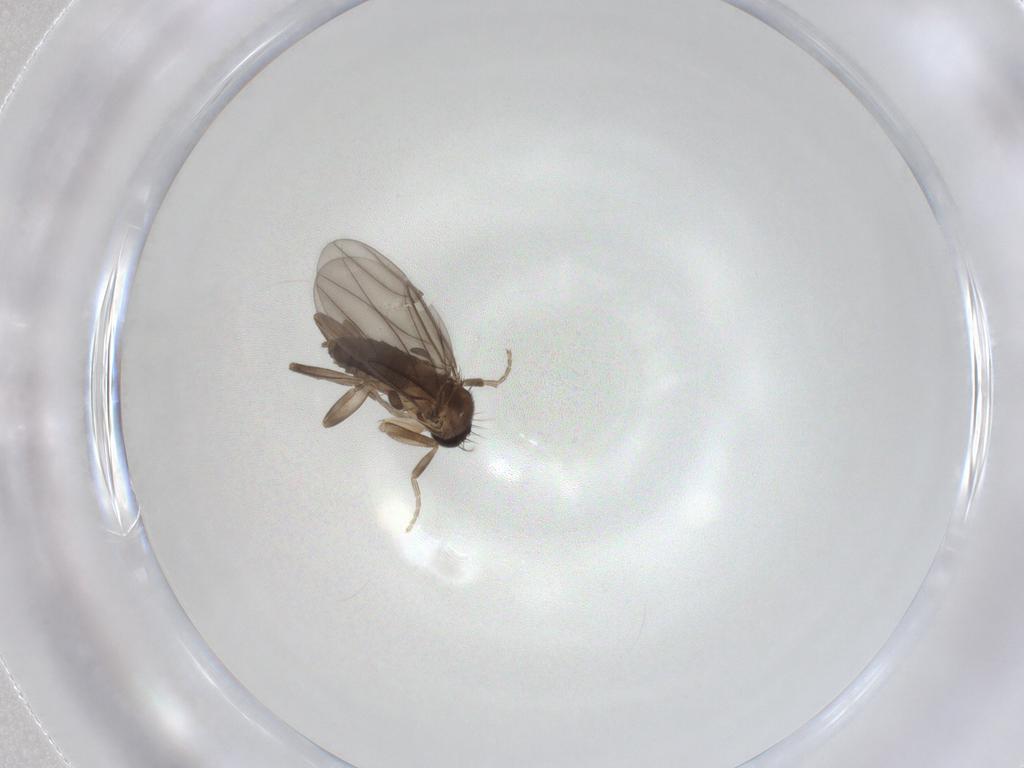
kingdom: Animalia
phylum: Arthropoda
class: Insecta
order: Diptera
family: Chironomidae
